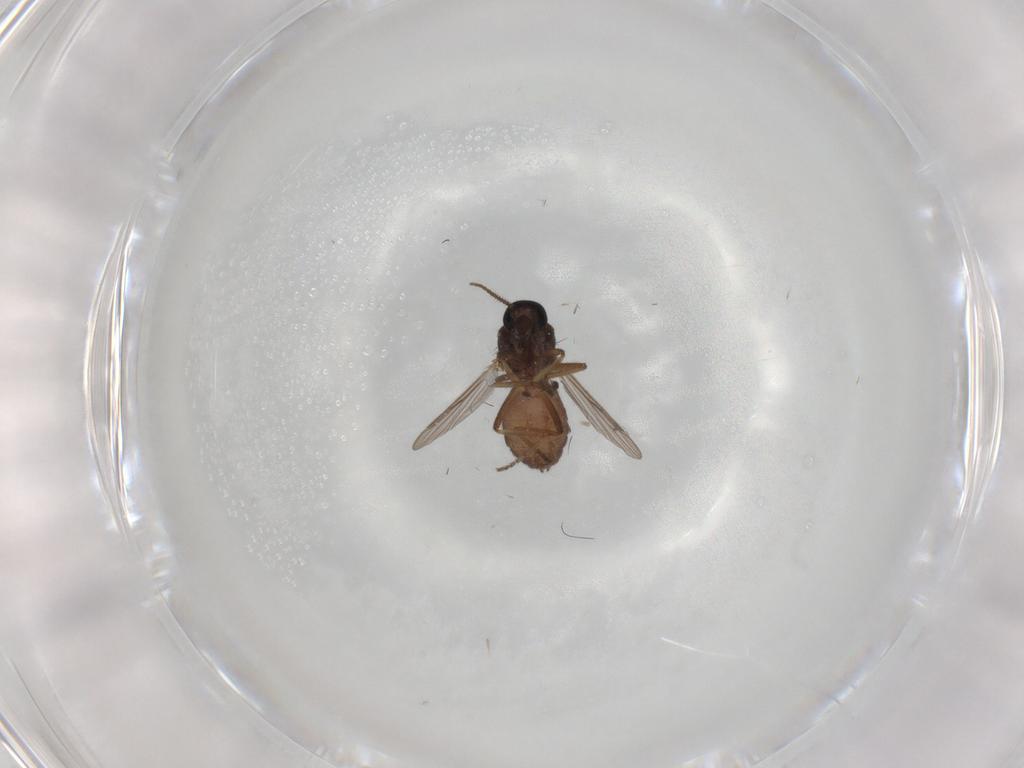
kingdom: Animalia
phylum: Arthropoda
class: Insecta
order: Diptera
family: Ceratopogonidae
